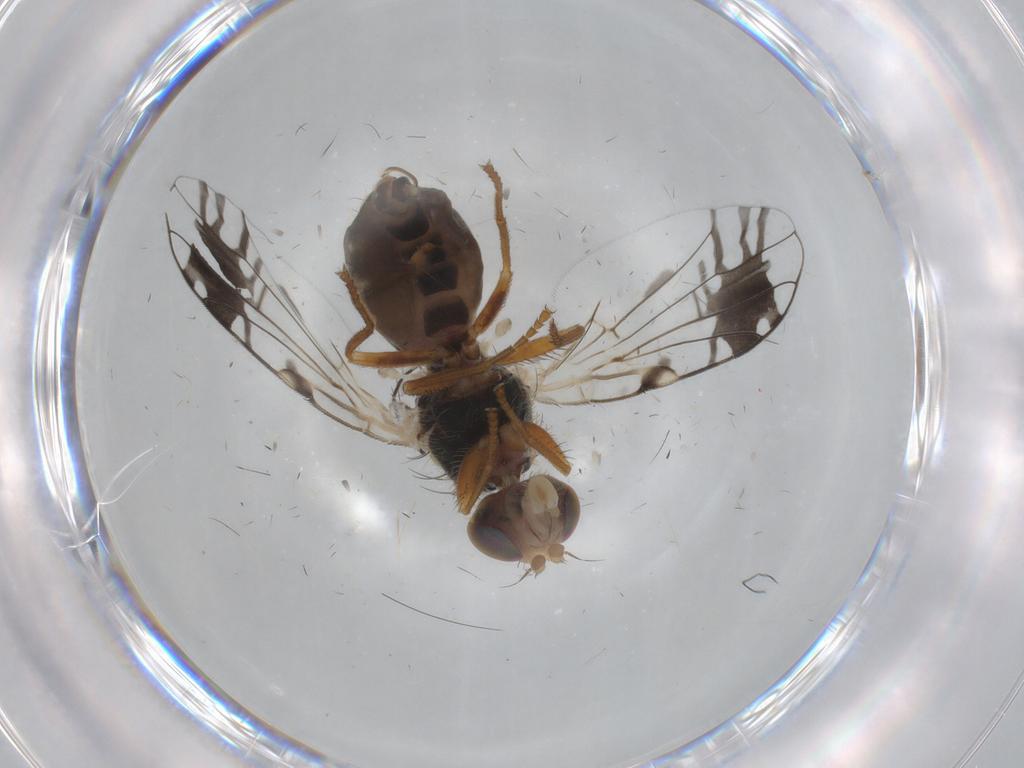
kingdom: Animalia
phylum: Arthropoda
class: Insecta
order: Diptera
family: Tephritidae
